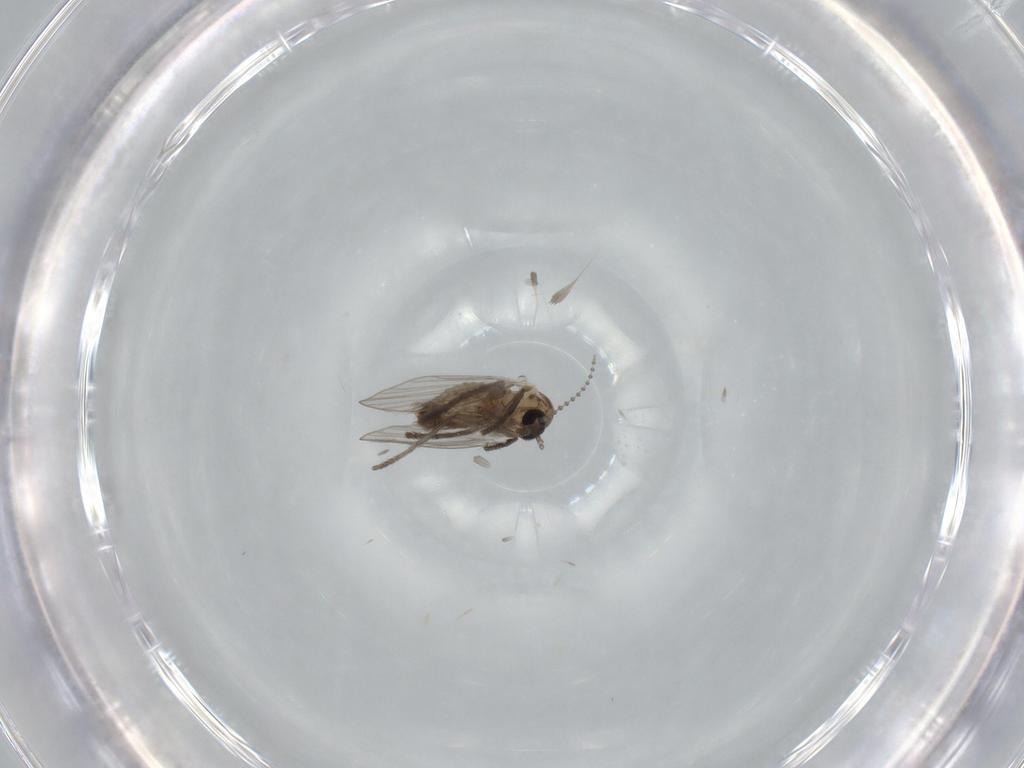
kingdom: Animalia
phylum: Arthropoda
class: Insecta
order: Diptera
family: Psychodidae
